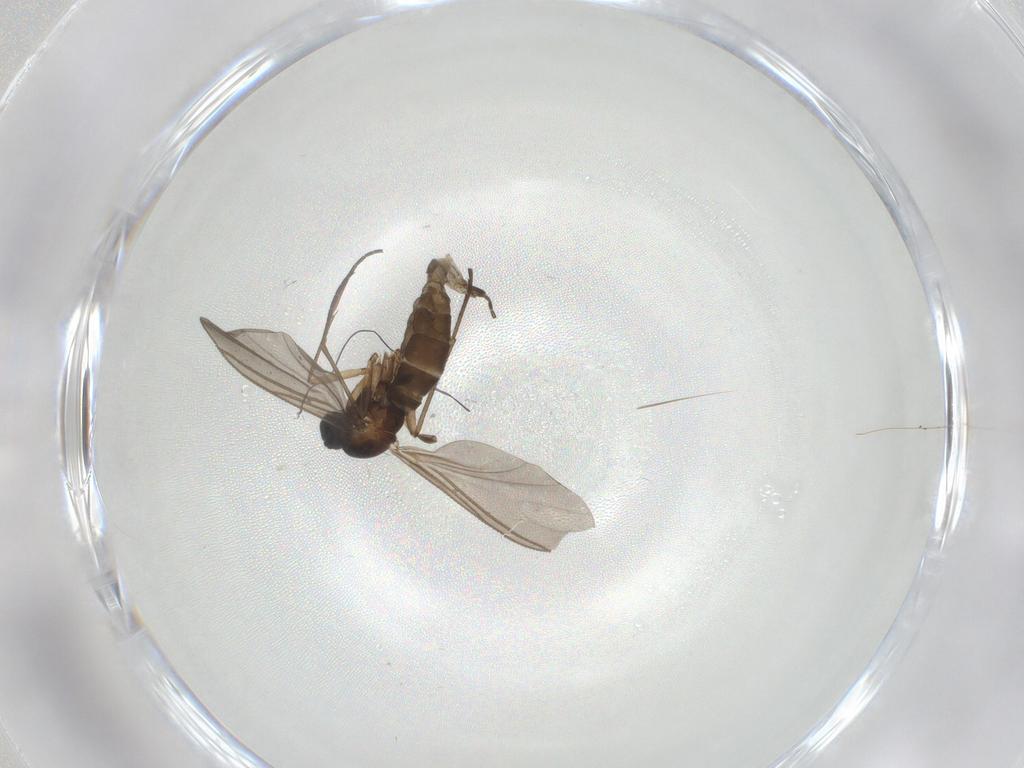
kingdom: Animalia
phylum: Arthropoda
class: Insecta
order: Diptera
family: Sciaridae
